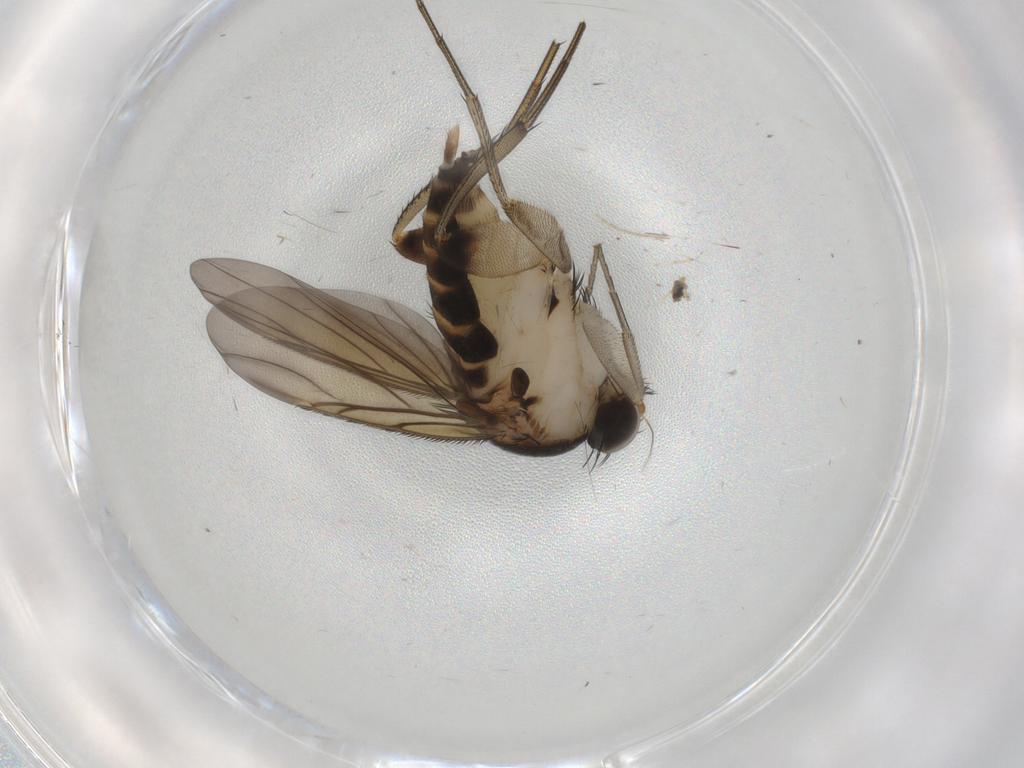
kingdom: Animalia
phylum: Arthropoda
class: Insecta
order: Diptera
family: Phoridae
